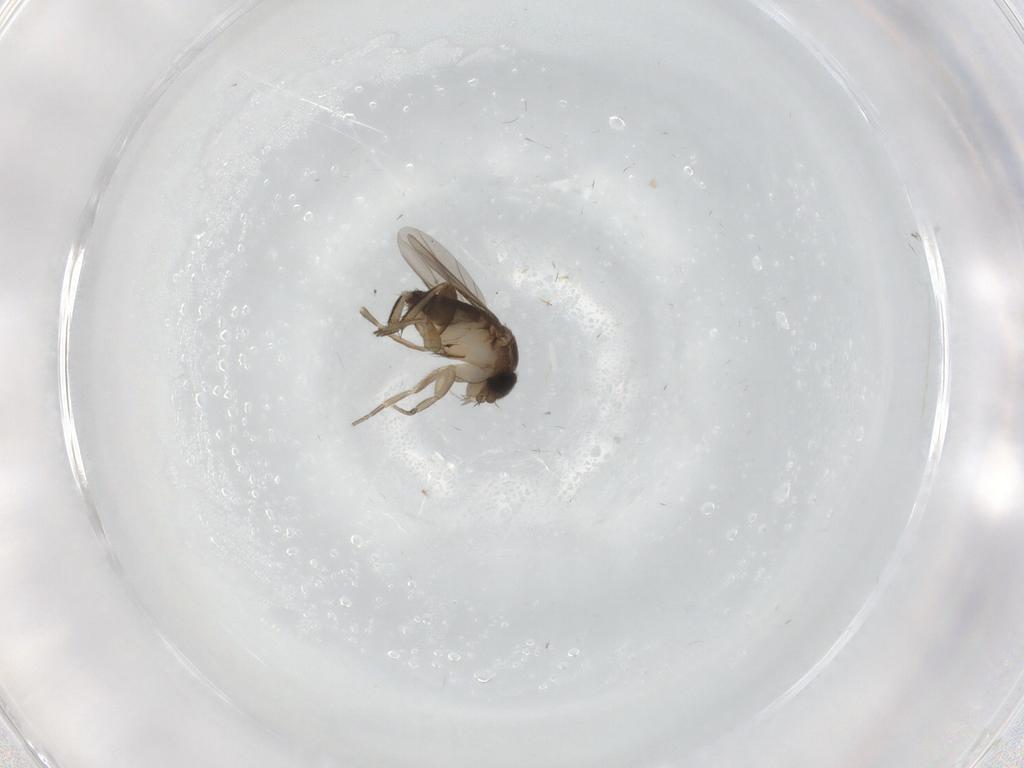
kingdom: Animalia
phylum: Arthropoda
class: Insecta
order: Diptera
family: Phoridae
